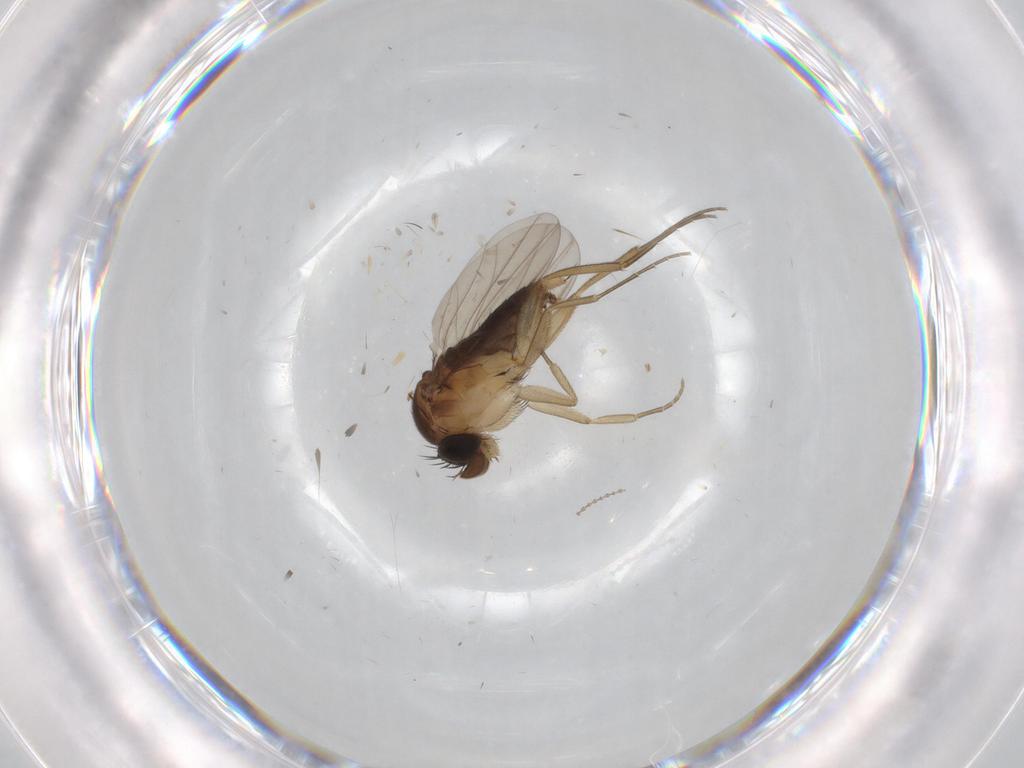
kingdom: Animalia
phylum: Arthropoda
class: Insecta
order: Diptera
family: Phoridae
